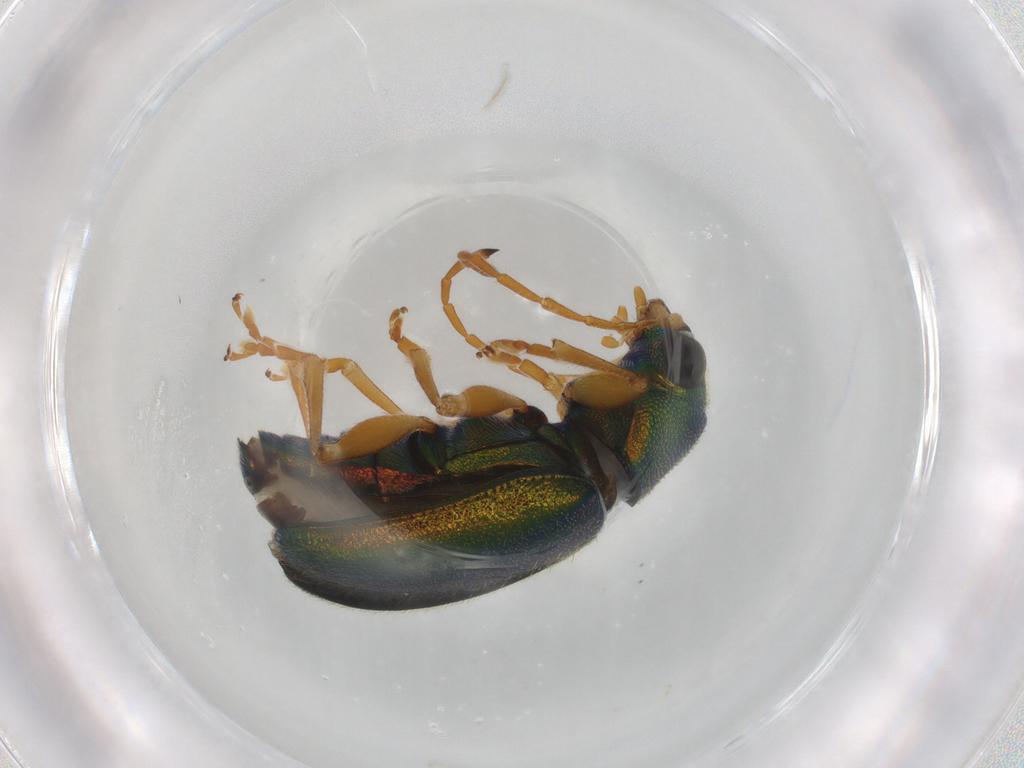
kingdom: Animalia
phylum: Arthropoda
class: Insecta
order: Coleoptera
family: Chrysomelidae
